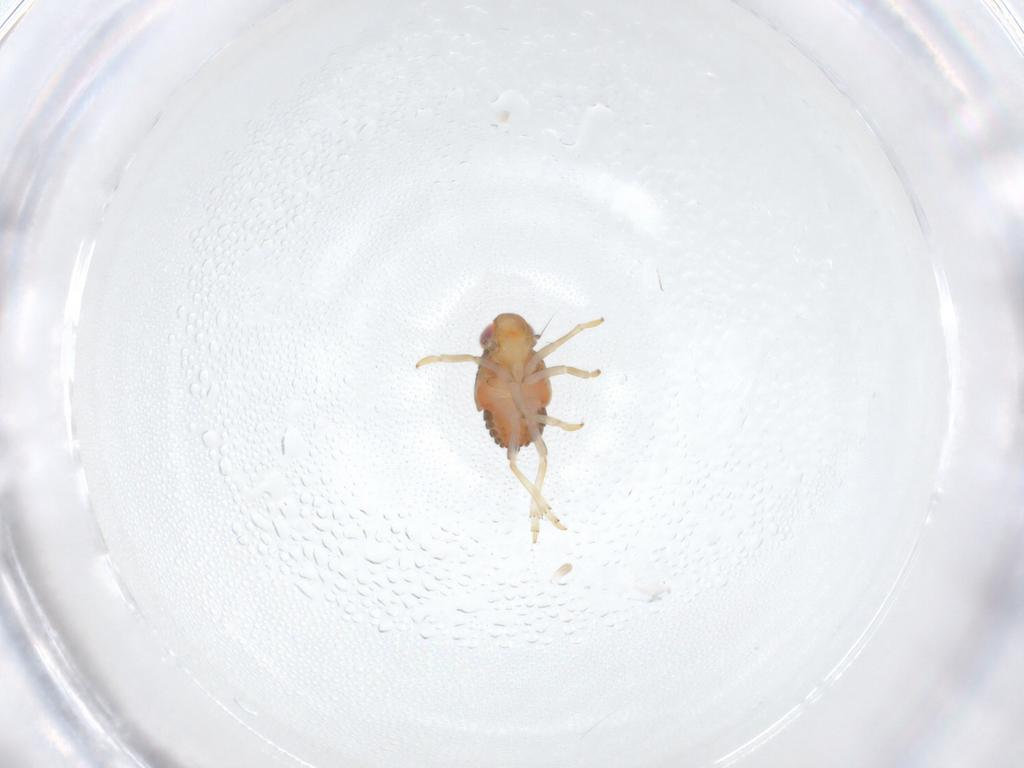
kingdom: Animalia
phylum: Arthropoda
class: Insecta
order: Hemiptera
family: Issidae
